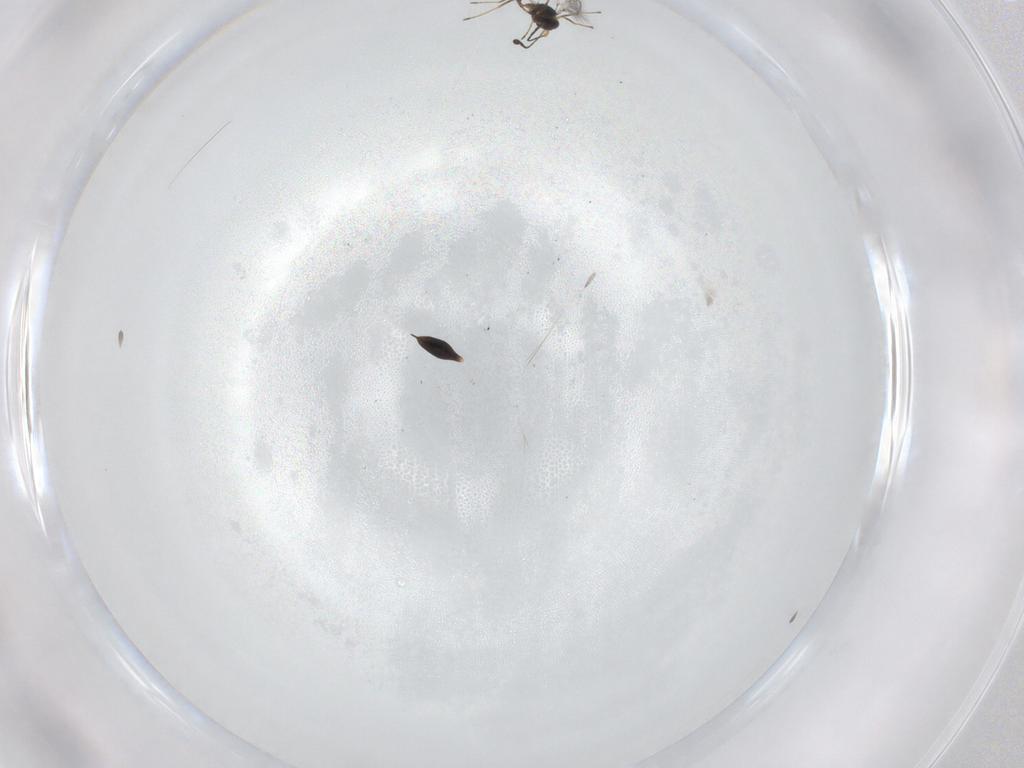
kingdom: Animalia
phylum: Arthropoda
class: Insecta
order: Hymenoptera
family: Mymaridae
